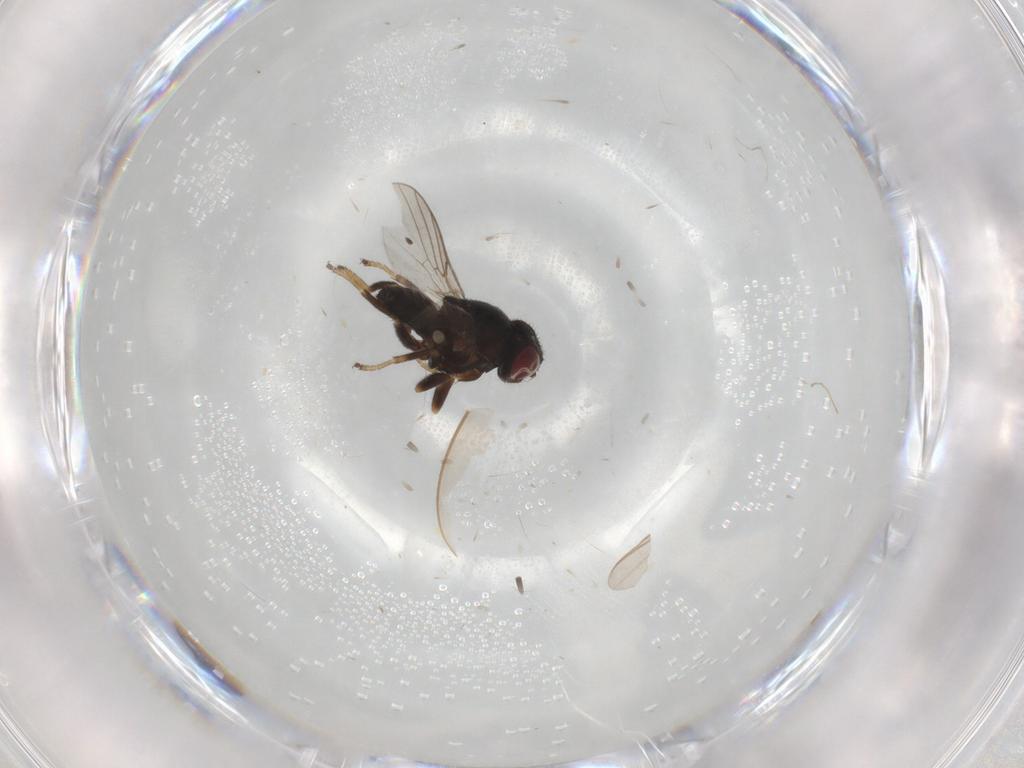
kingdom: Animalia
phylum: Arthropoda
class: Insecta
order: Diptera
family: Chloropidae
